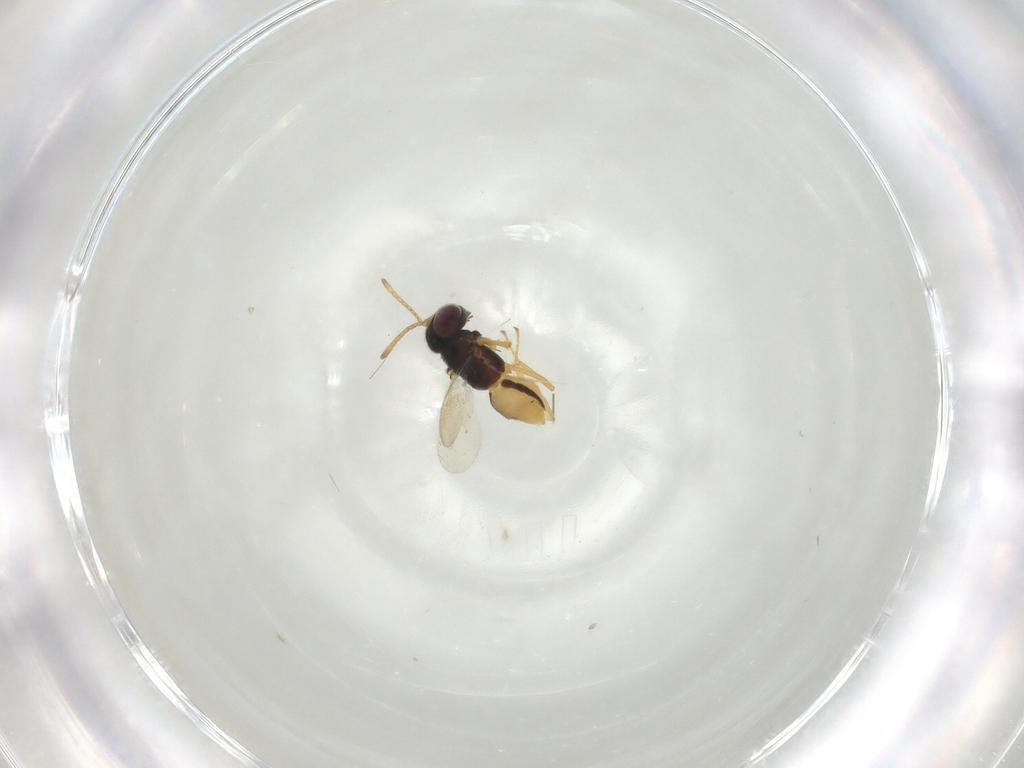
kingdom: Animalia
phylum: Arthropoda
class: Insecta
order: Hymenoptera
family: Encyrtidae
